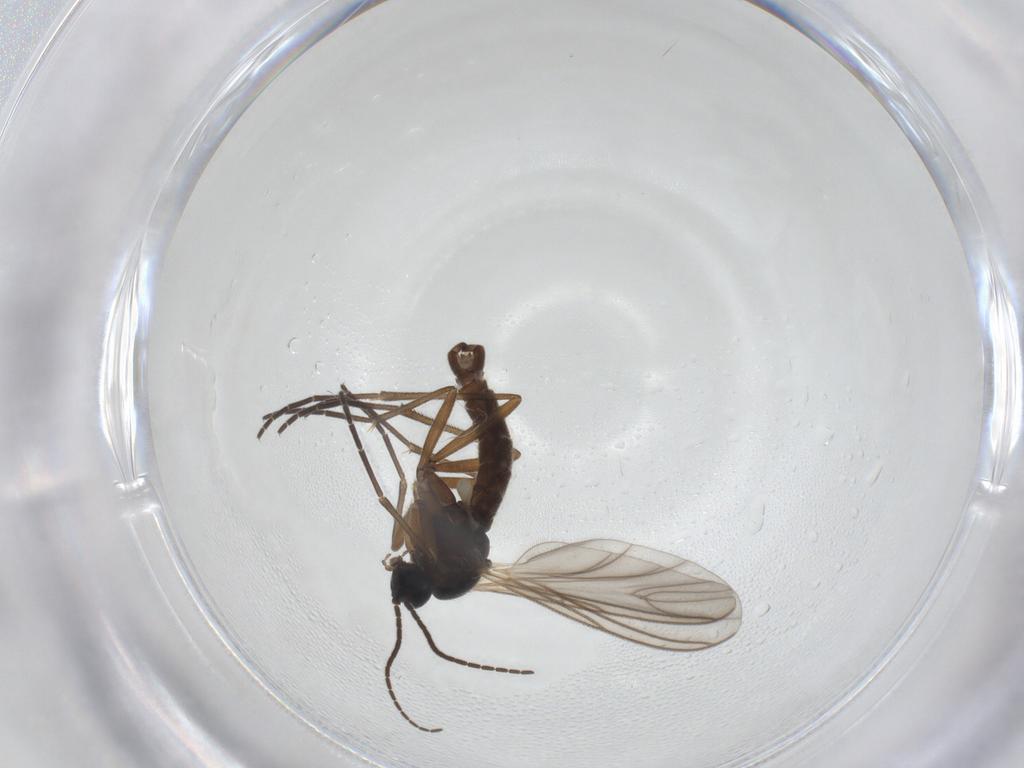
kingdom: Animalia
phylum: Arthropoda
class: Insecta
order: Diptera
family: Sciaridae
